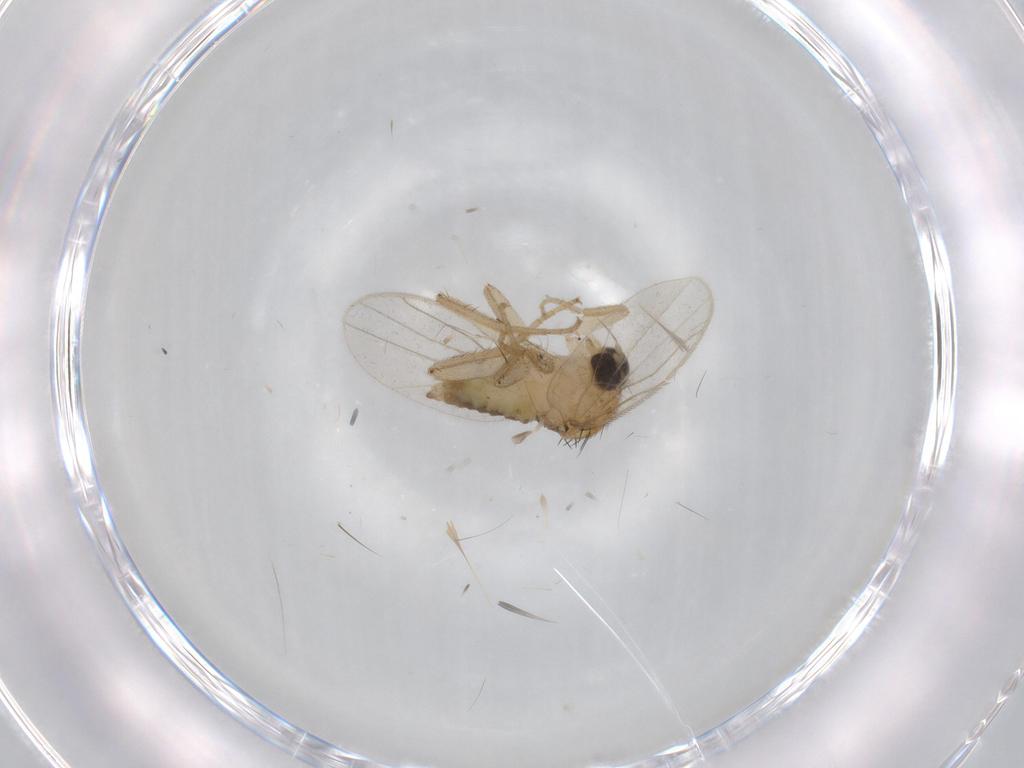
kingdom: Animalia
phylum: Arthropoda
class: Insecta
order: Diptera
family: Hybotidae
